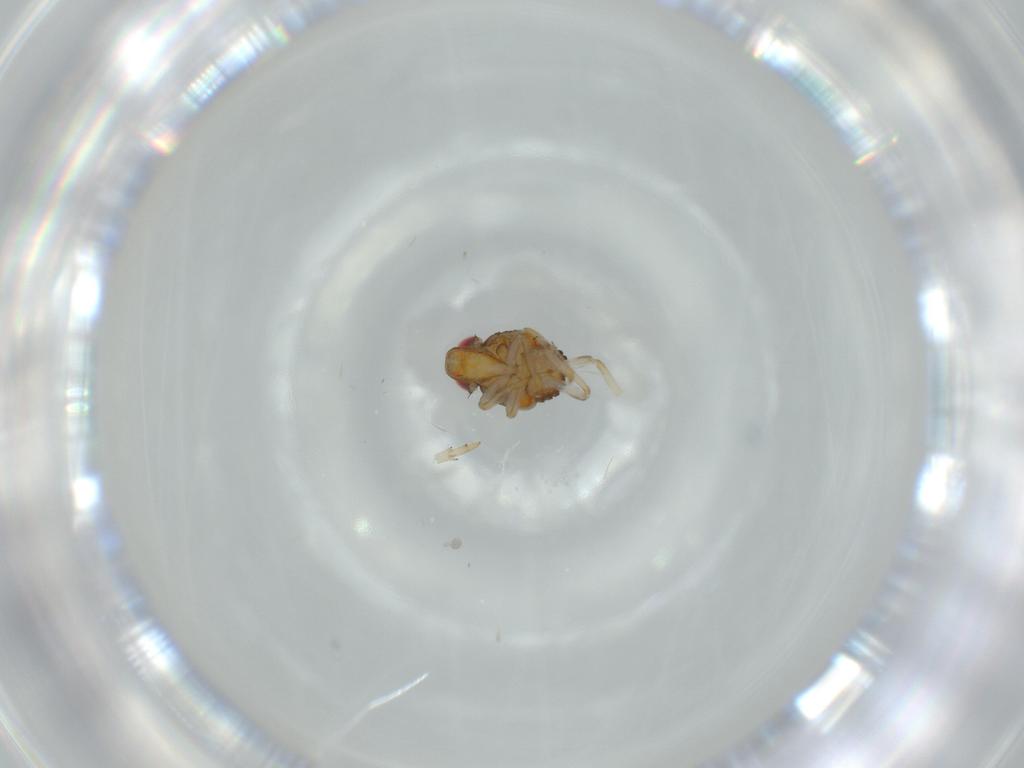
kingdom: Animalia
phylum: Arthropoda
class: Insecta
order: Hemiptera
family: Issidae
